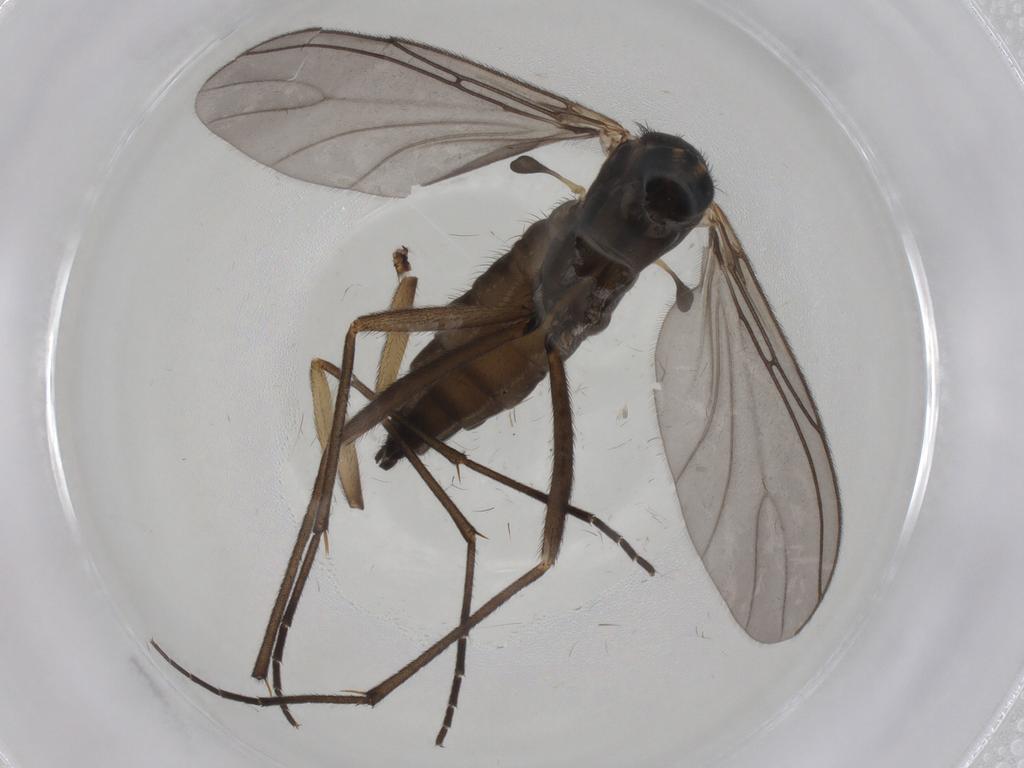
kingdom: Animalia
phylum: Arthropoda
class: Insecta
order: Diptera
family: Sciaridae
